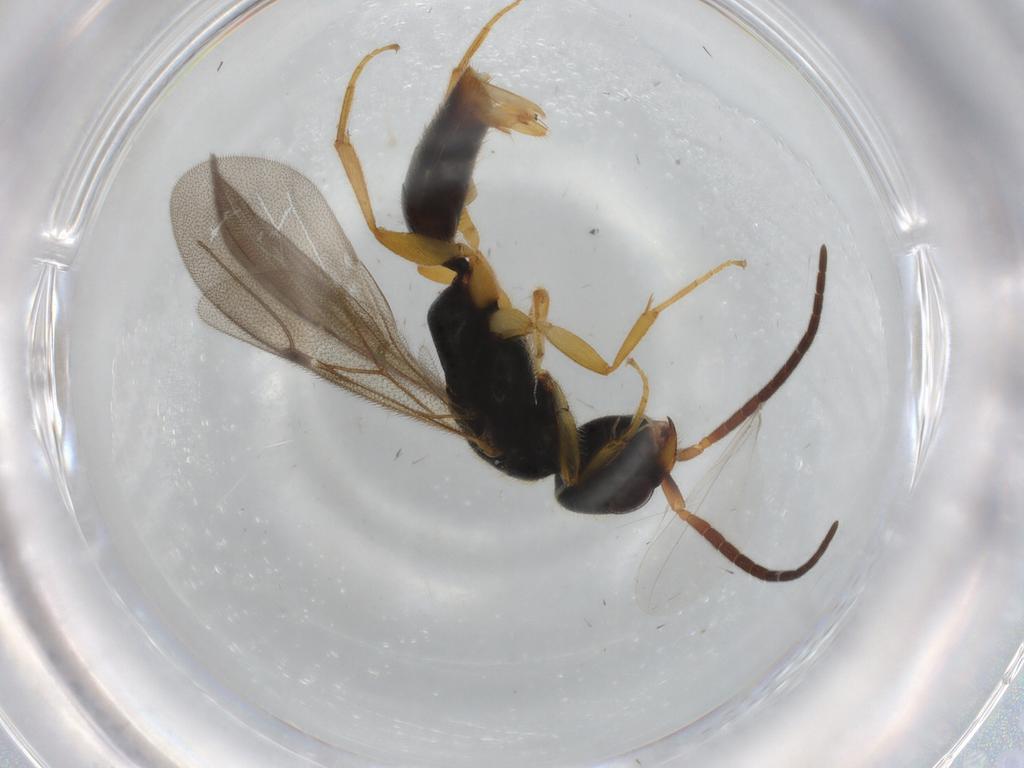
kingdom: Animalia
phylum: Arthropoda
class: Insecta
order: Hymenoptera
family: Bethylidae
